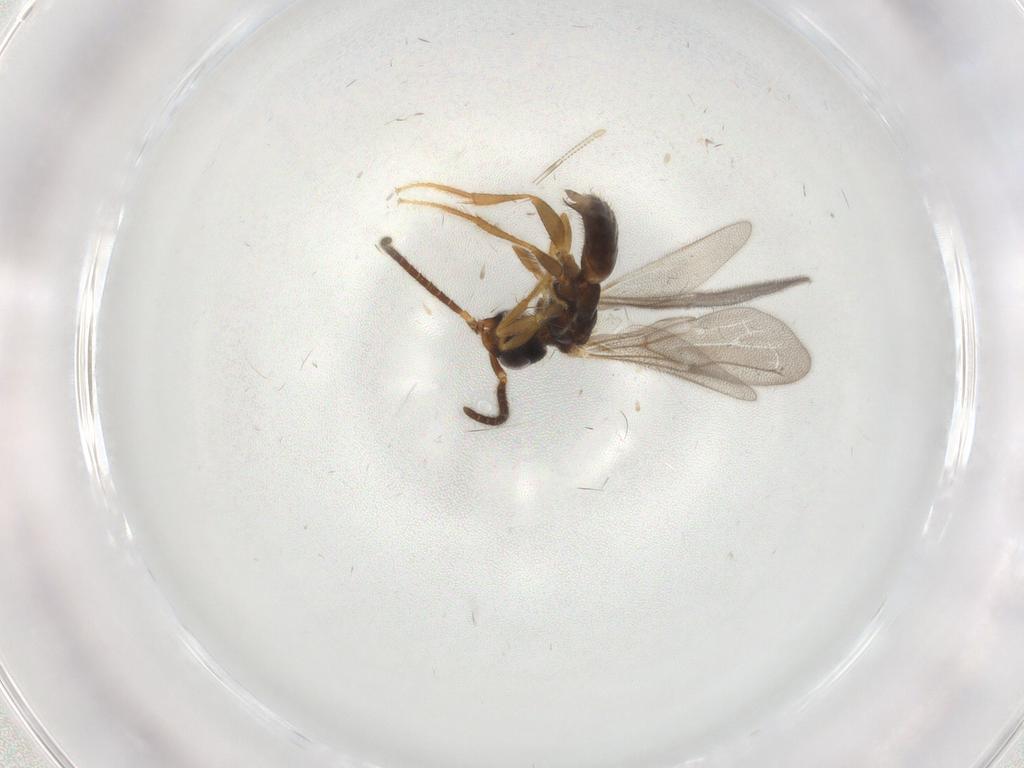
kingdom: Animalia
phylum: Arthropoda
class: Insecta
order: Hymenoptera
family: Bethylidae
